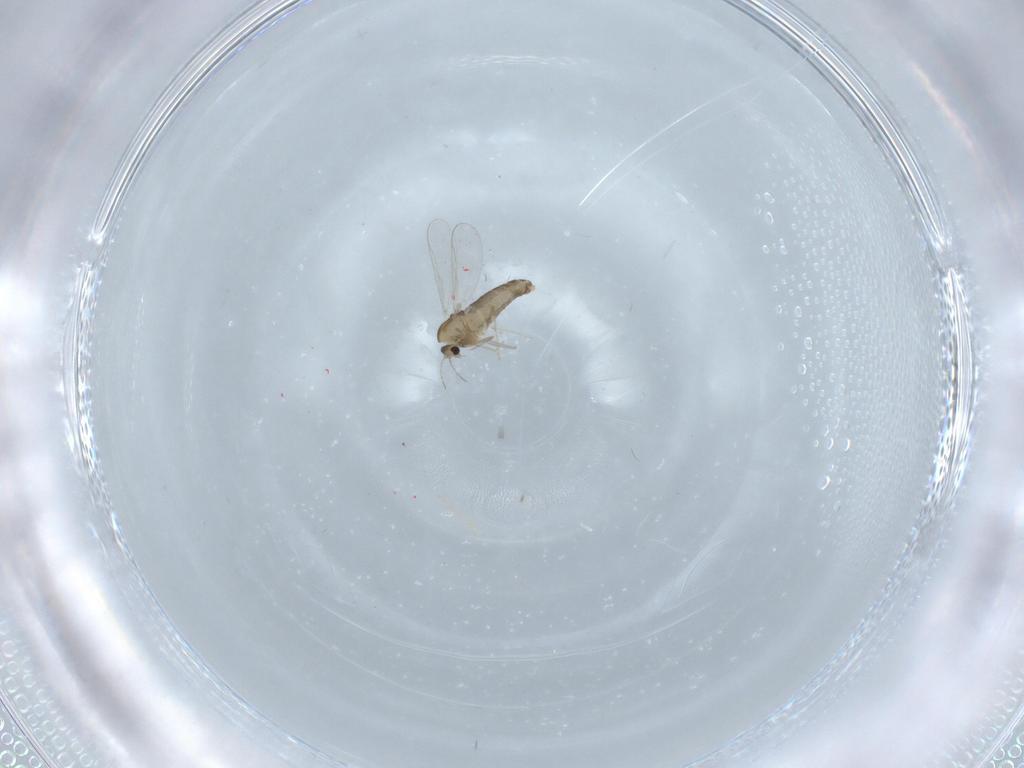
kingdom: Animalia
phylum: Arthropoda
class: Insecta
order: Diptera
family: Chironomidae
